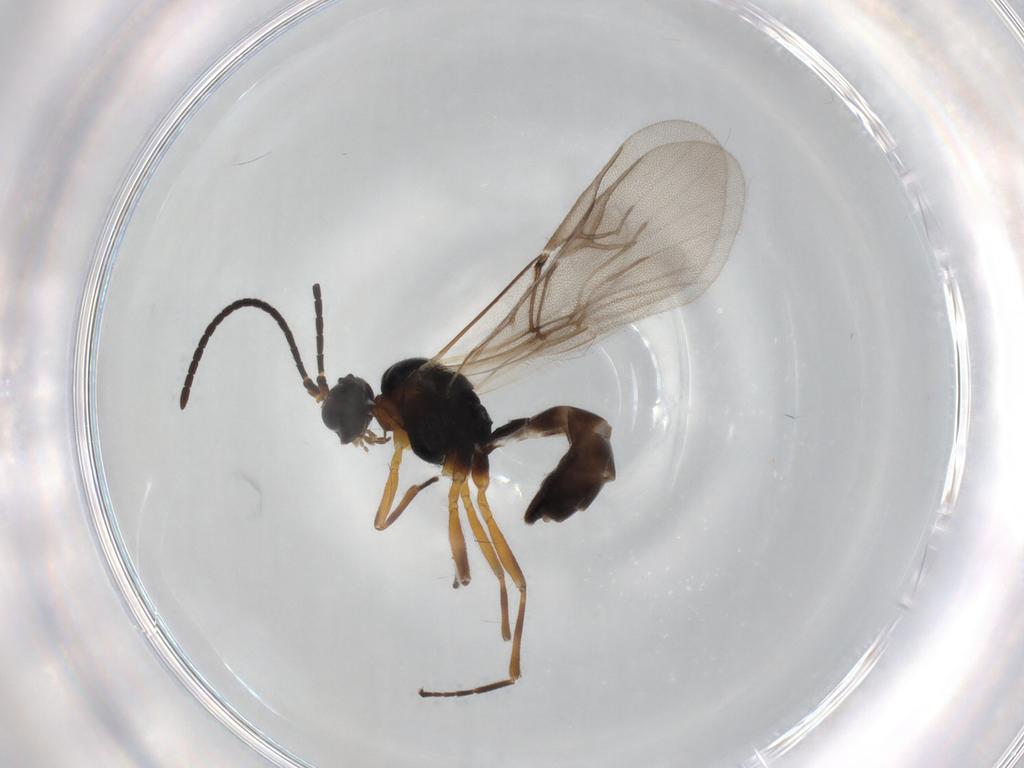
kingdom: Animalia
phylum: Arthropoda
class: Insecta
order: Hymenoptera
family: Braconidae
